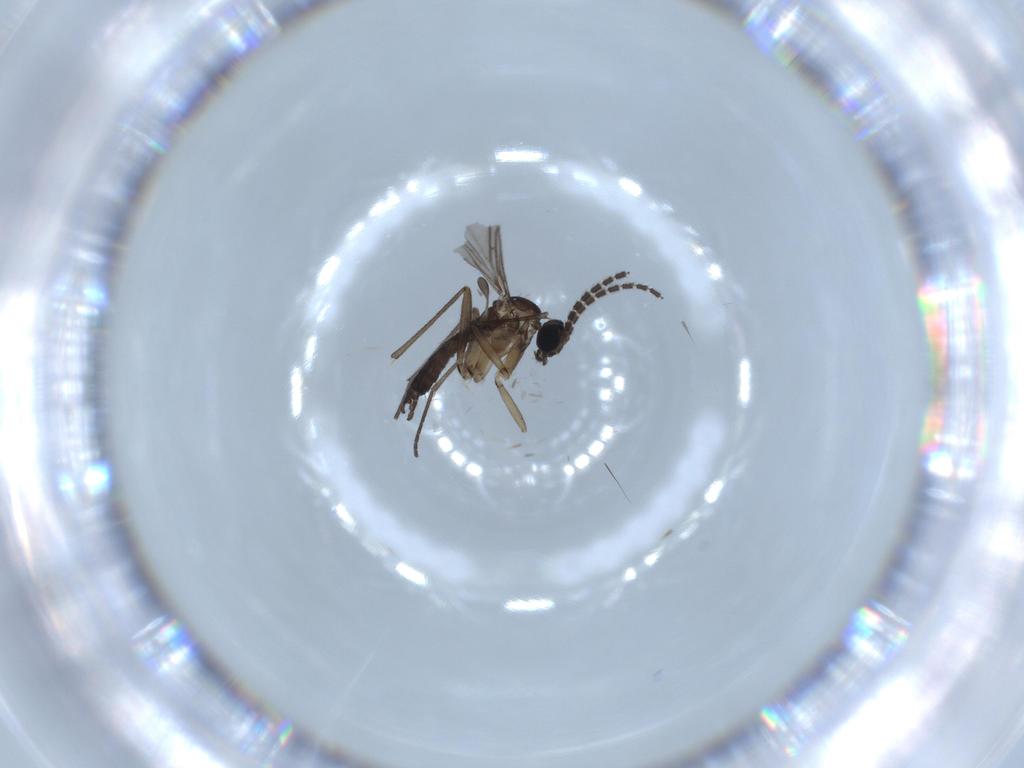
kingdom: Animalia
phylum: Arthropoda
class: Insecta
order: Diptera
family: Sciaridae
